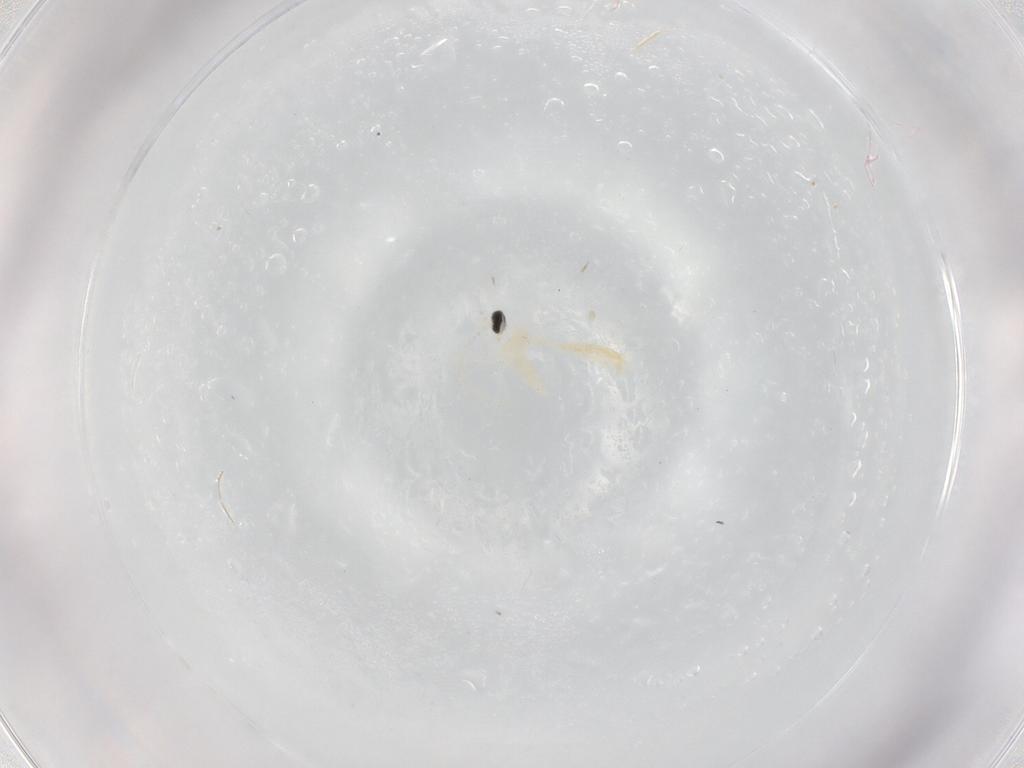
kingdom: Animalia
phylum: Arthropoda
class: Insecta
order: Diptera
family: Cecidomyiidae
